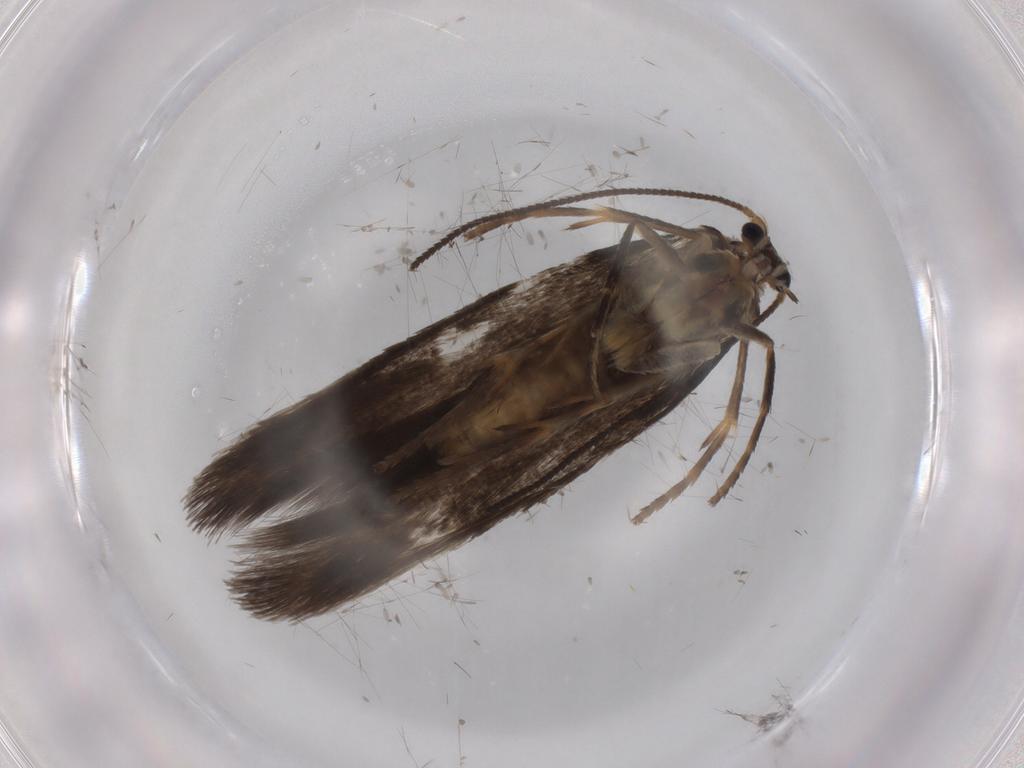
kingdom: Animalia
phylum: Arthropoda
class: Insecta
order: Lepidoptera
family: Nepticulidae
